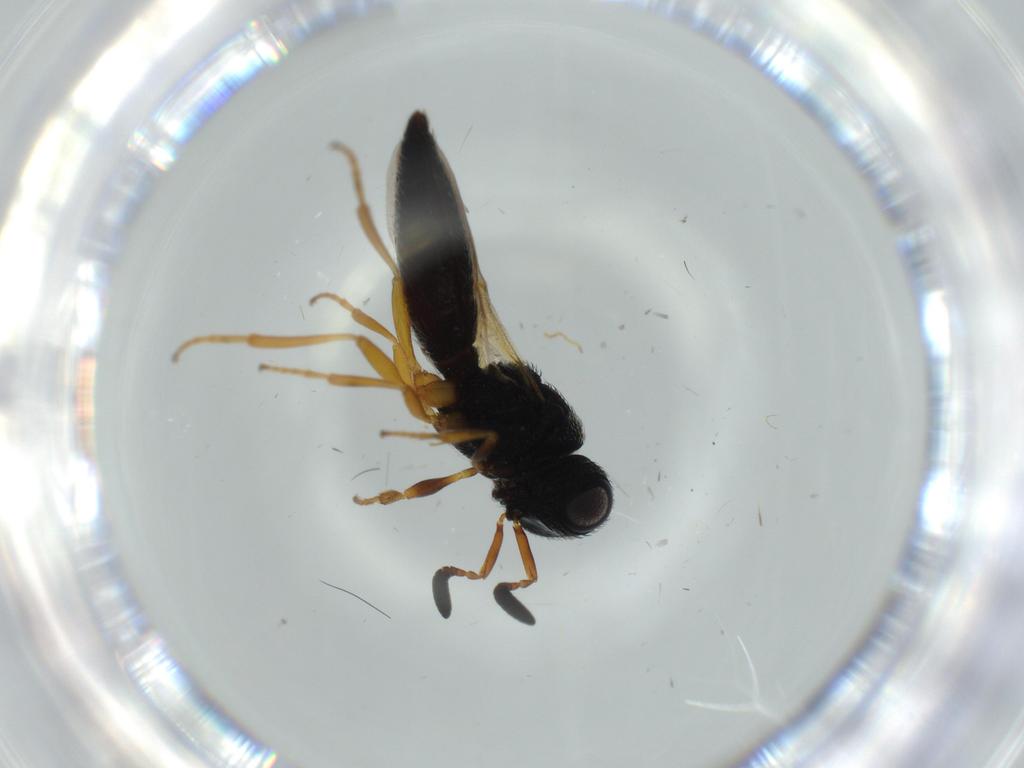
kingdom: Animalia
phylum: Arthropoda
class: Insecta
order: Hymenoptera
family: Scelionidae
